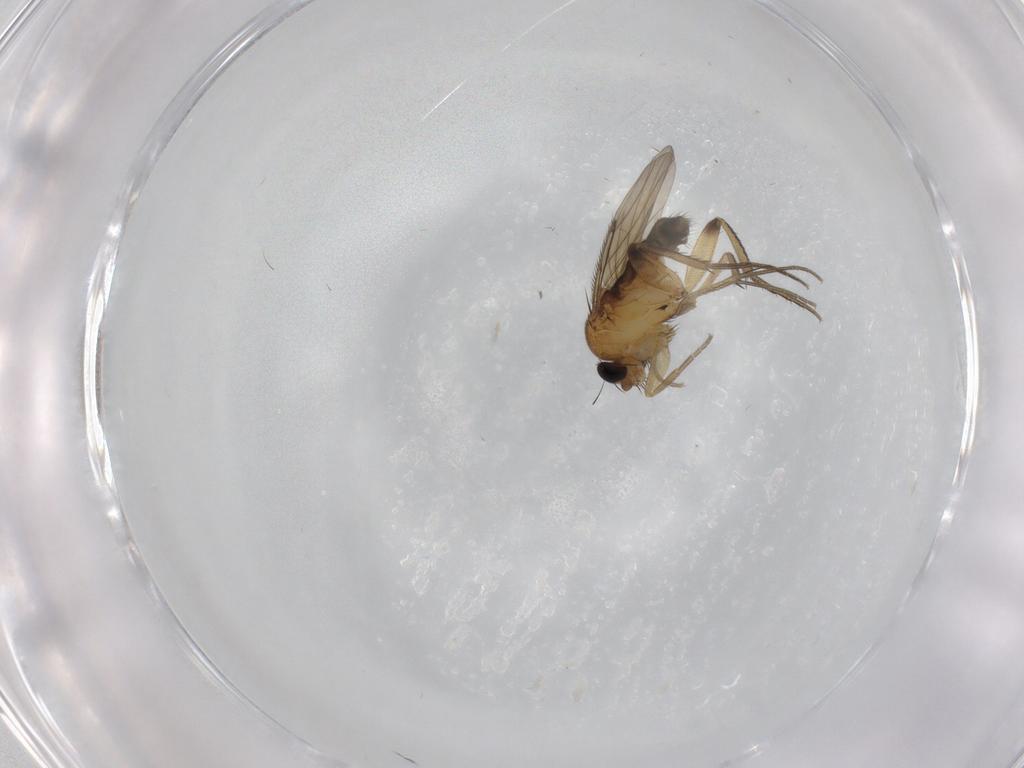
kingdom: Animalia
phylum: Arthropoda
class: Insecta
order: Diptera
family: Phoridae
